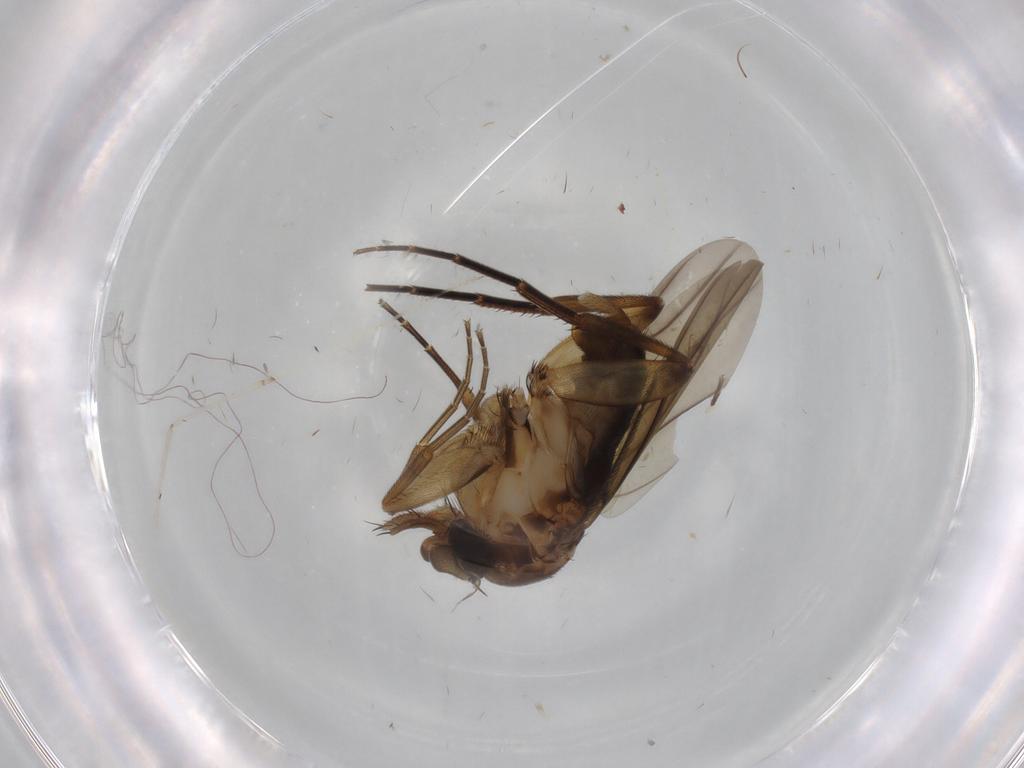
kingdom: Animalia
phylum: Arthropoda
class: Insecta
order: Diptera
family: Phoridae
